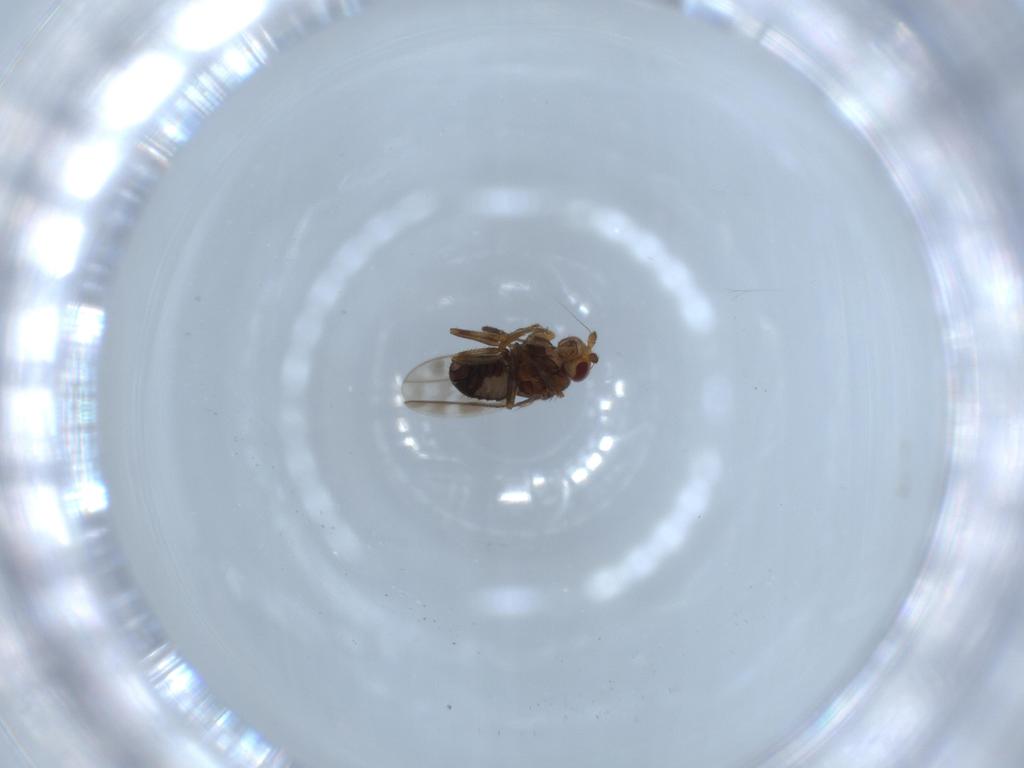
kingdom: Animalia
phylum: Arthropoda
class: Insecta
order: Diptera
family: Sphaeroceridae
